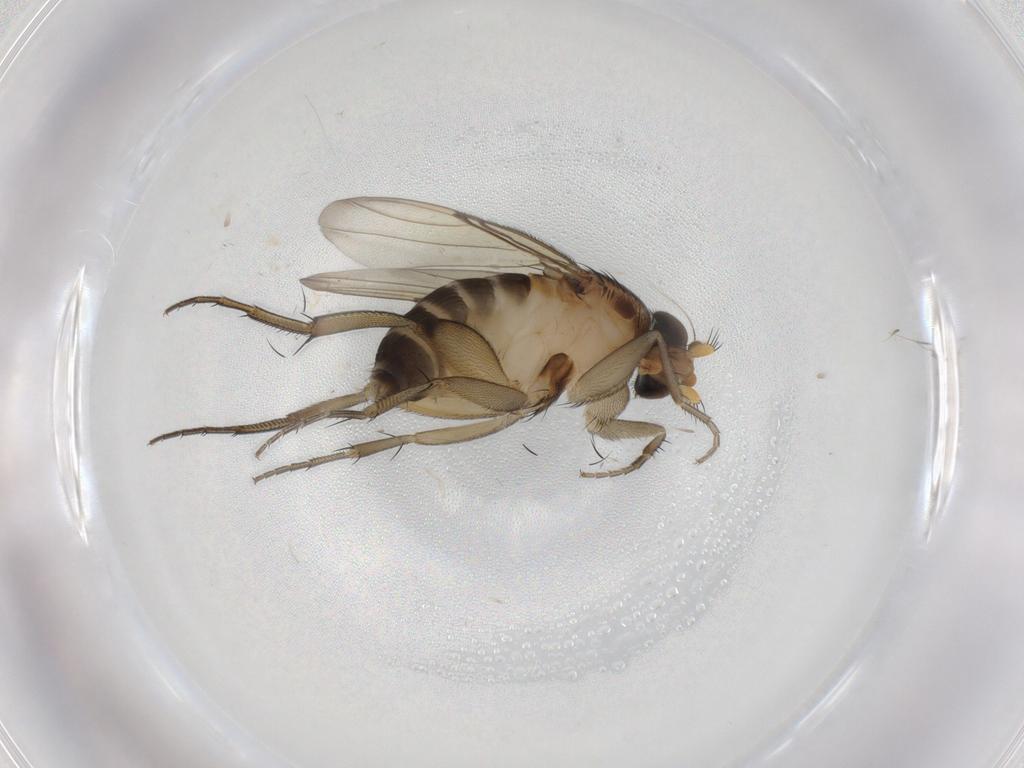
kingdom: Animalia
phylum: Arthropoda
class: Insecta
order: Diptera
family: Phoridae
